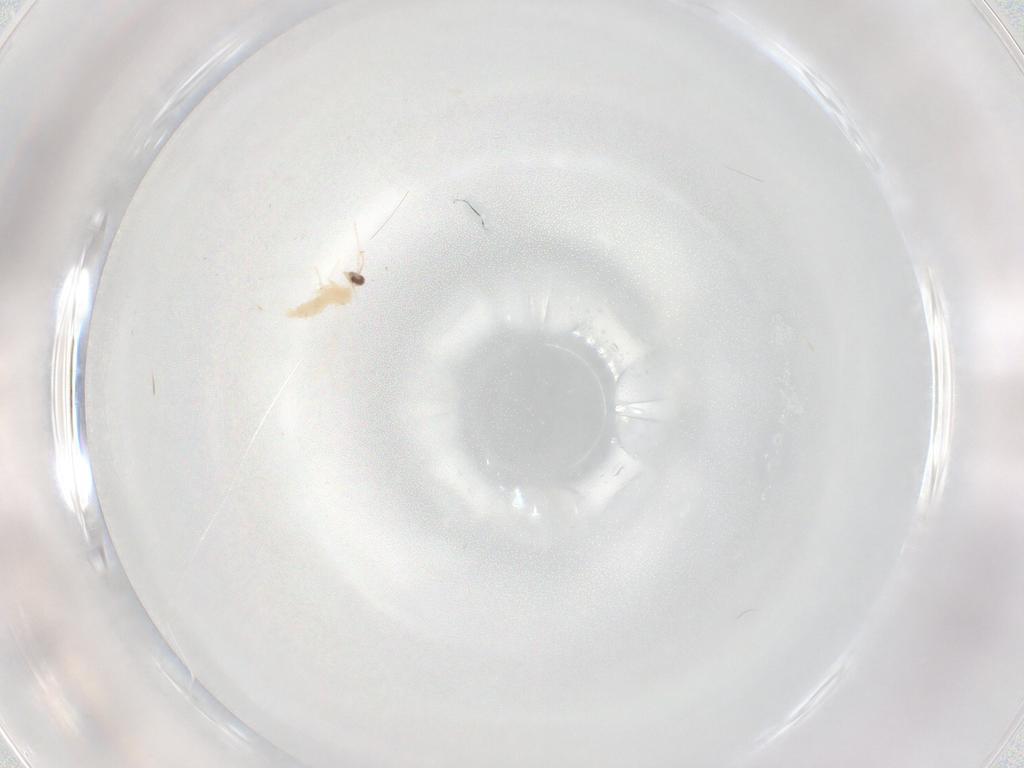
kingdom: Animalia
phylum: Arthropoda
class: Insecta
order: Diptera
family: Cecidomyiidae
